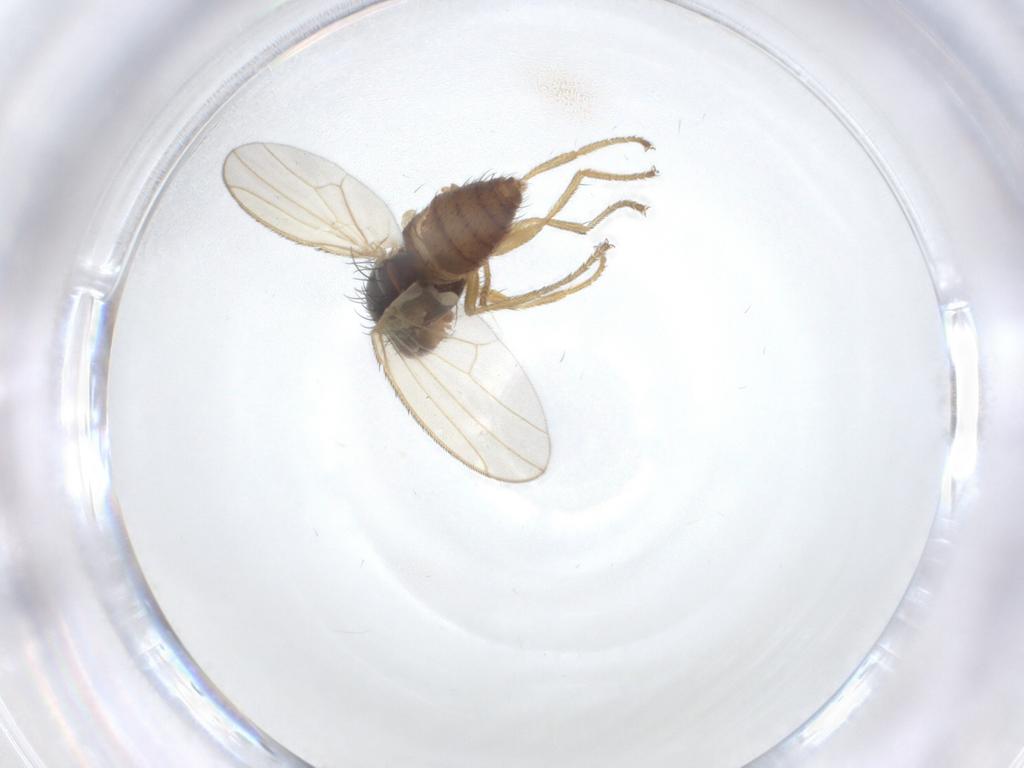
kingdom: Animalia
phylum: Arthropoda
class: Insecta
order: Diptera
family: Heleomyzidae
